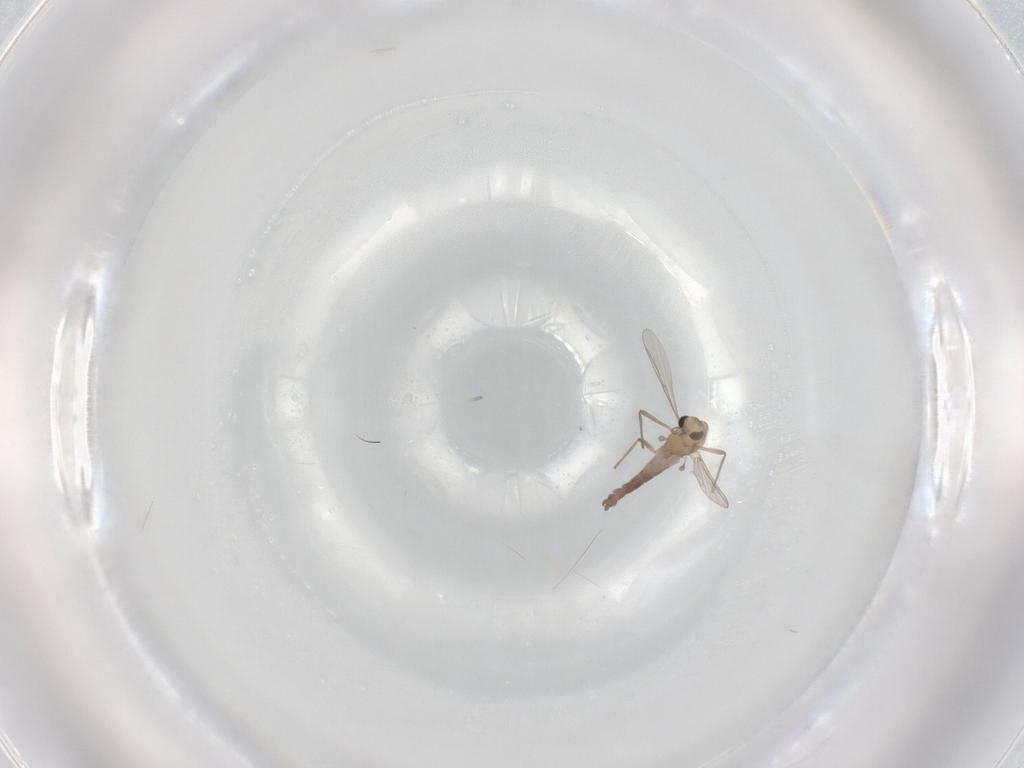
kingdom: Animalia
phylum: Arthropoda
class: Insecta
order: Diptera
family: Chironomidae
